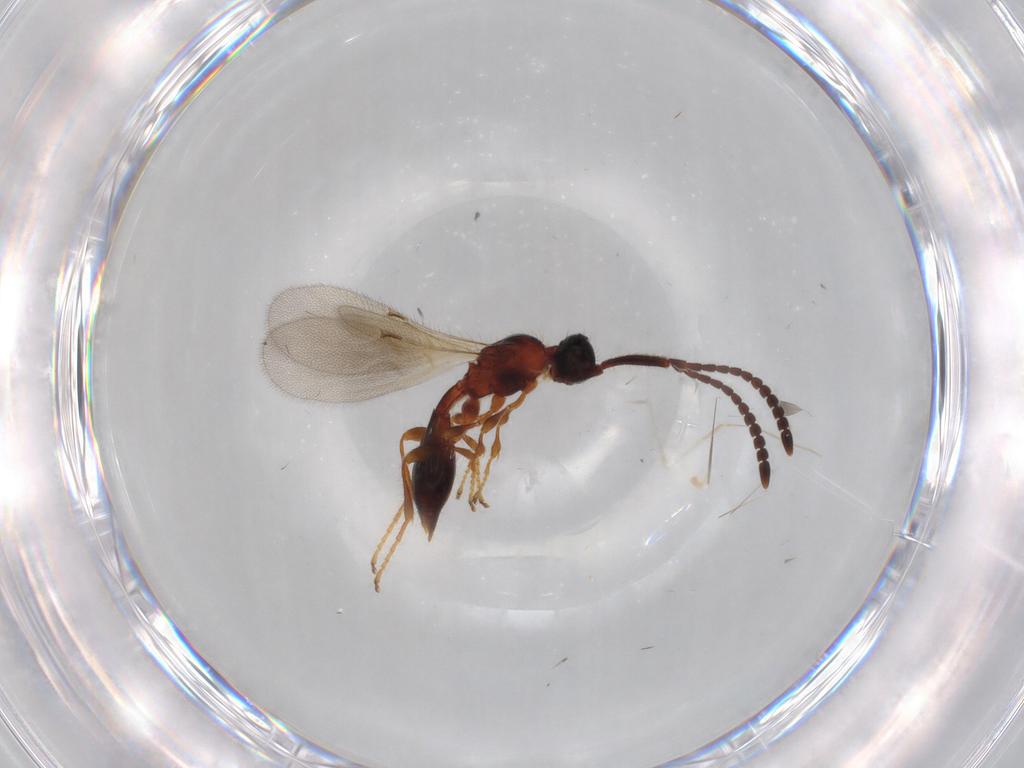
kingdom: Animalia
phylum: Arthropoda
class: Insecta
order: Hymenoptera
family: Diapriidae
